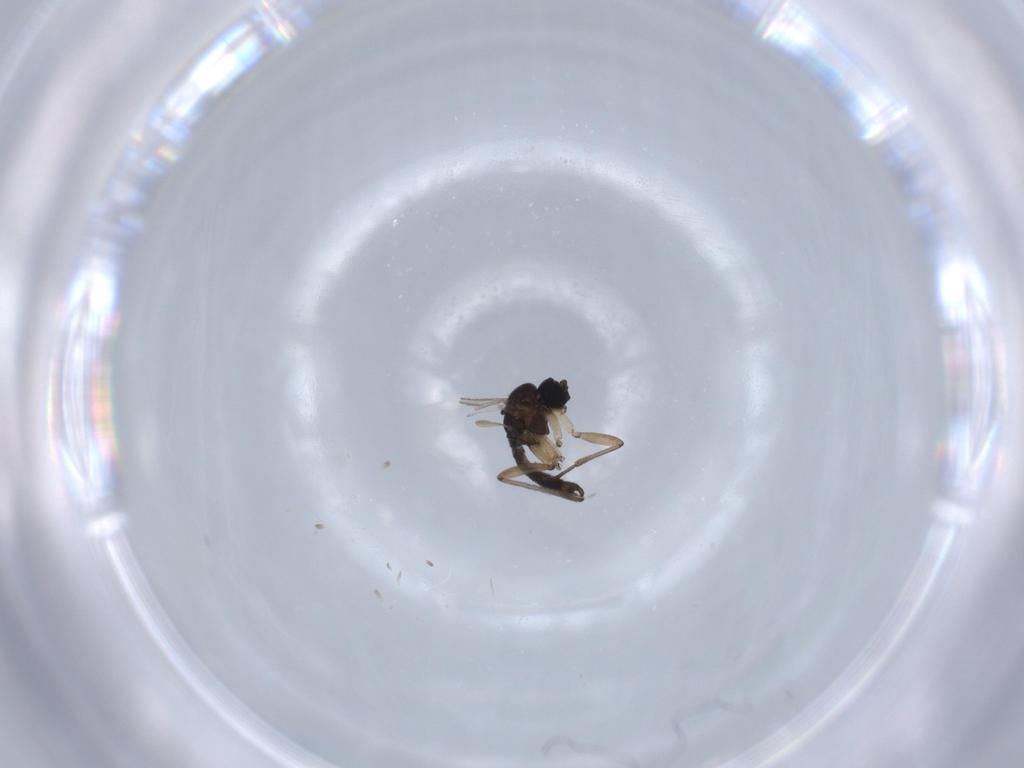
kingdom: Animalia
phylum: Arthropoda
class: Insecta
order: Diptera
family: Sciaridae
